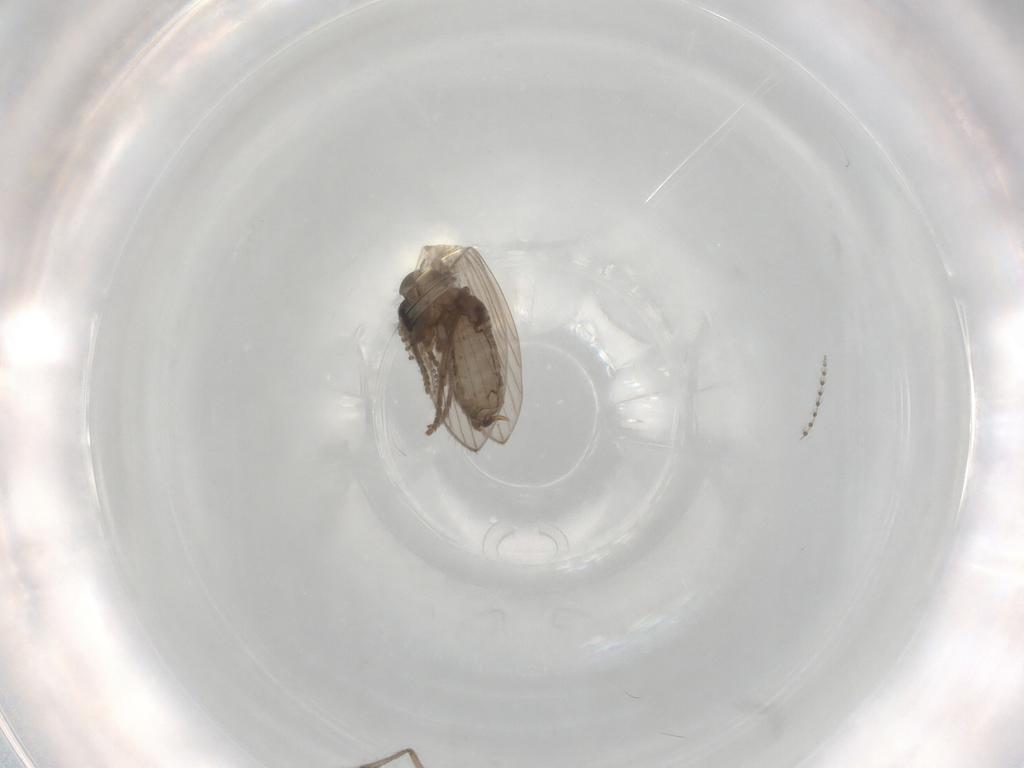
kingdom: Animalia
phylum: Arthropoda
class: Insecta
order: Diptera
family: Psychodidae
